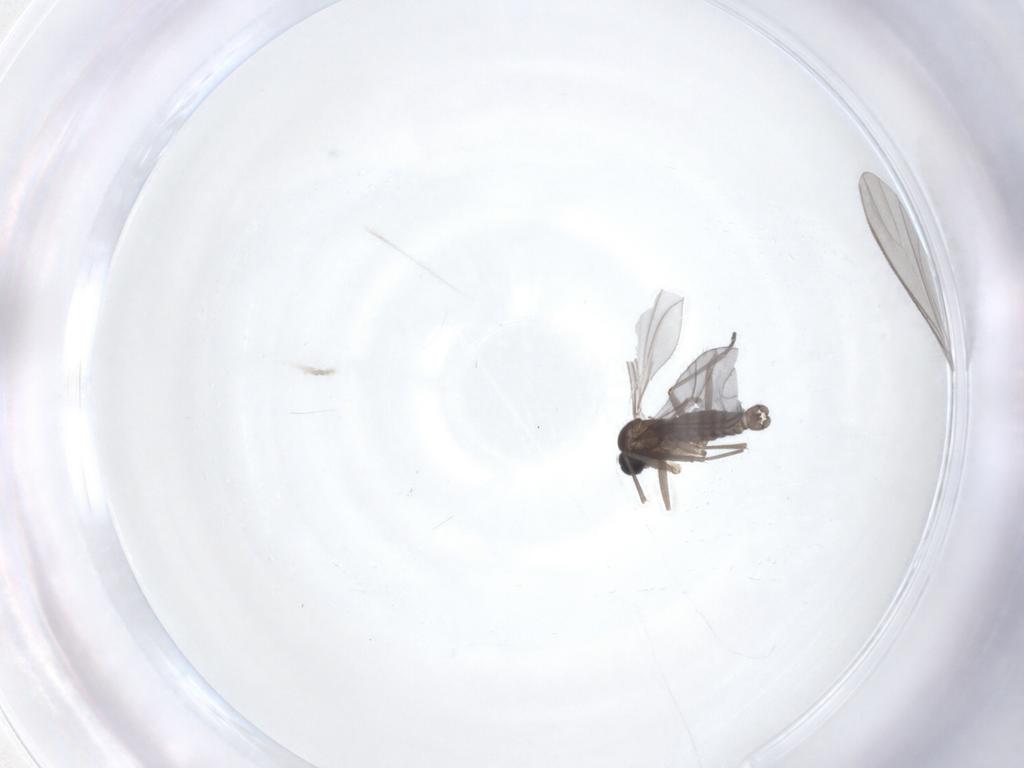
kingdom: Animalia
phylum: Arthropoda
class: Insecta
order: Diptera
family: Sciaridae
